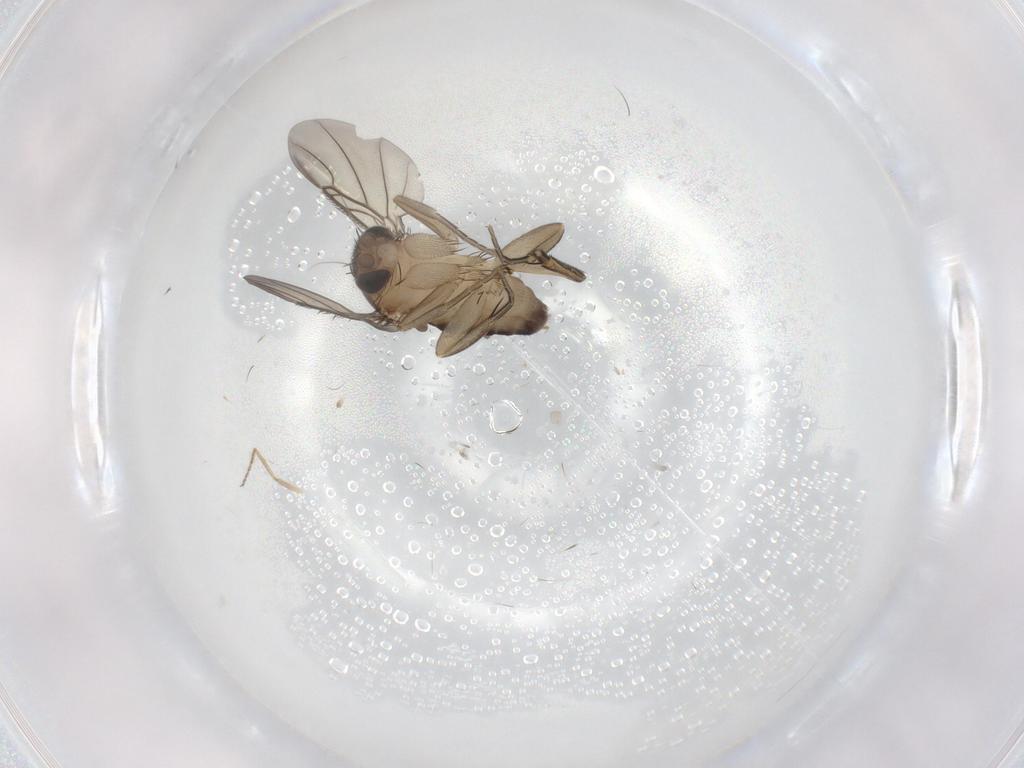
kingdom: Animalia
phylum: Arthropoda
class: Insecta
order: Diptera
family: Phoridae
